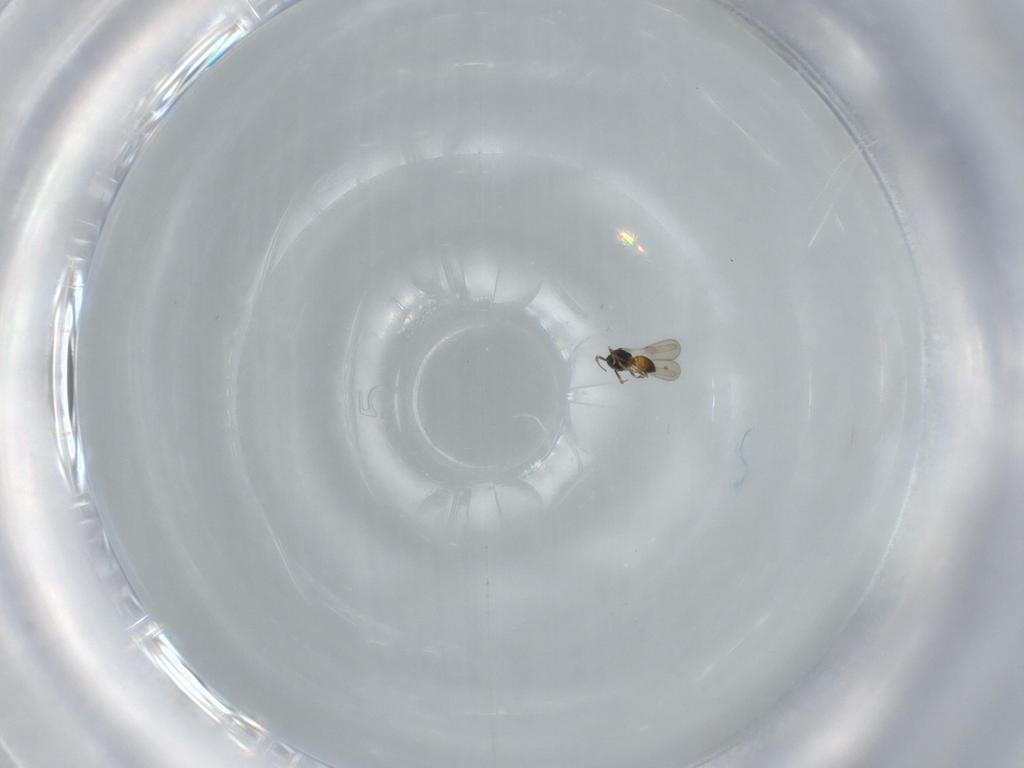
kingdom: Animalia
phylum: Arthropoda
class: Insecta
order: Hymenoptera
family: Scelionidae
